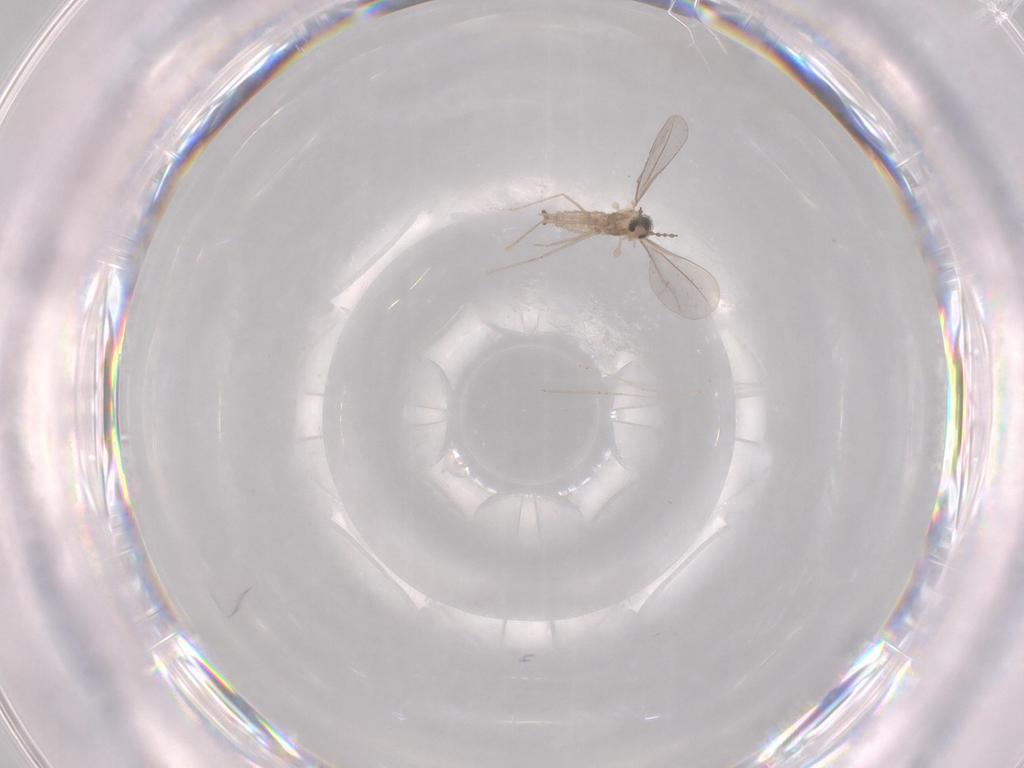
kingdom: Animalia
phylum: Arthropoda
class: Insecta
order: Diptera
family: Cecidomyiidae
